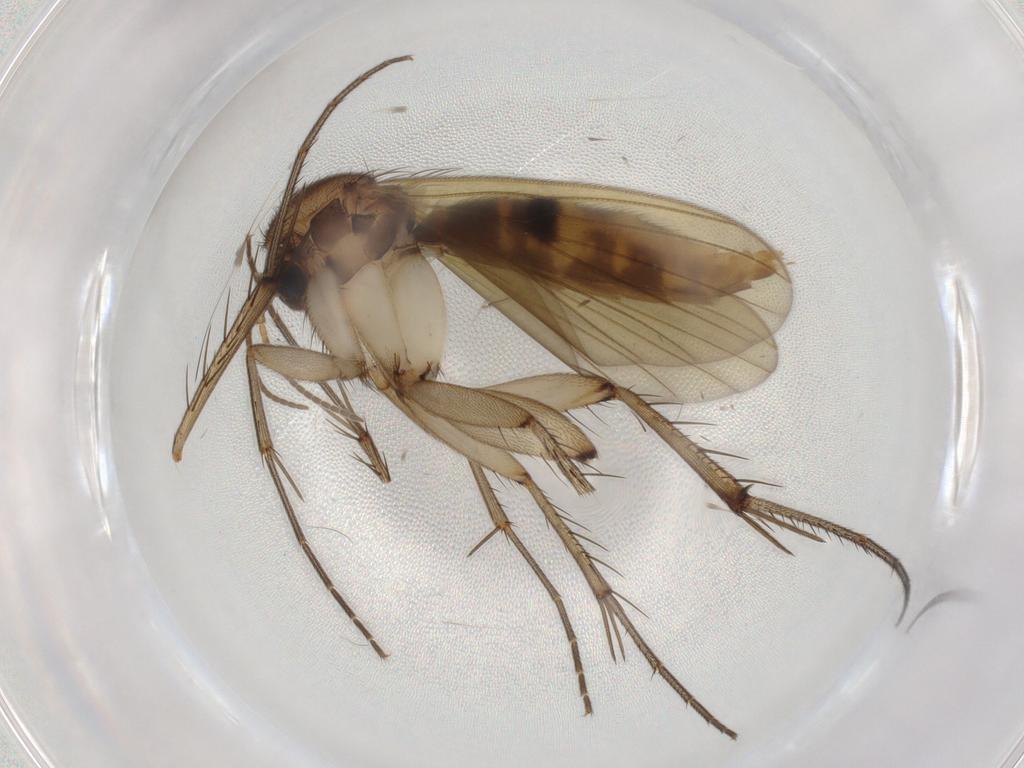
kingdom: Animalia
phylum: Arthropoda
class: Insecta
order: Diptera
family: Mycetophilidae
